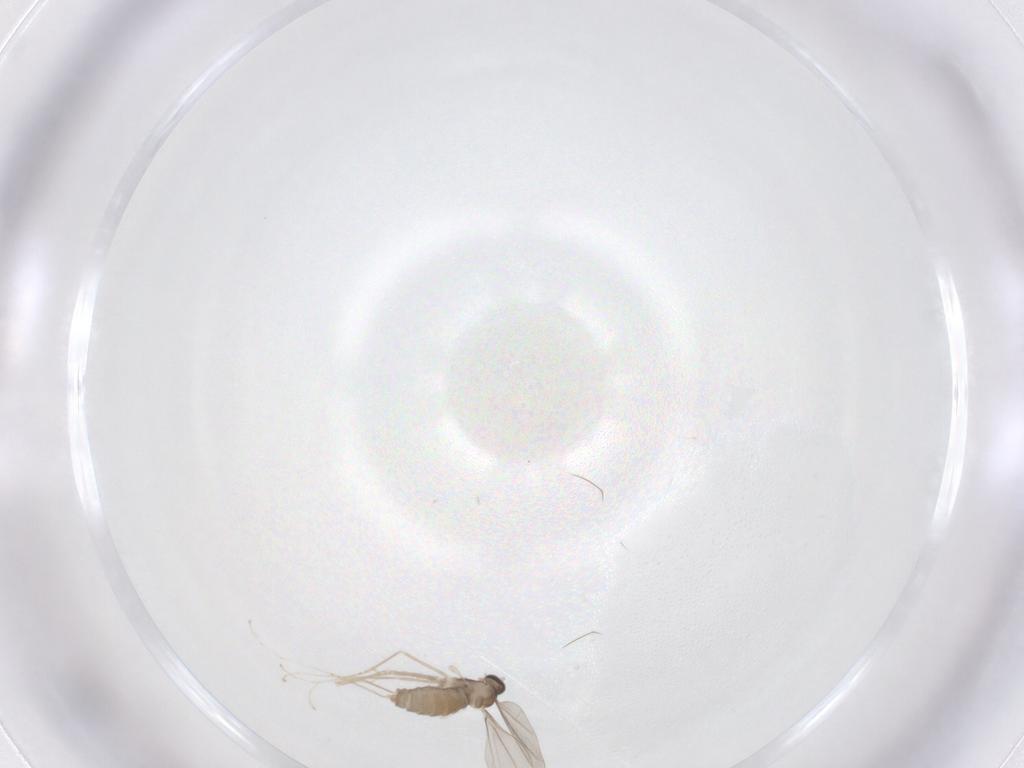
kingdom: Animalia
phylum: Arthropoda
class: Insecta
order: Diptera
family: Cecidomyiidae
